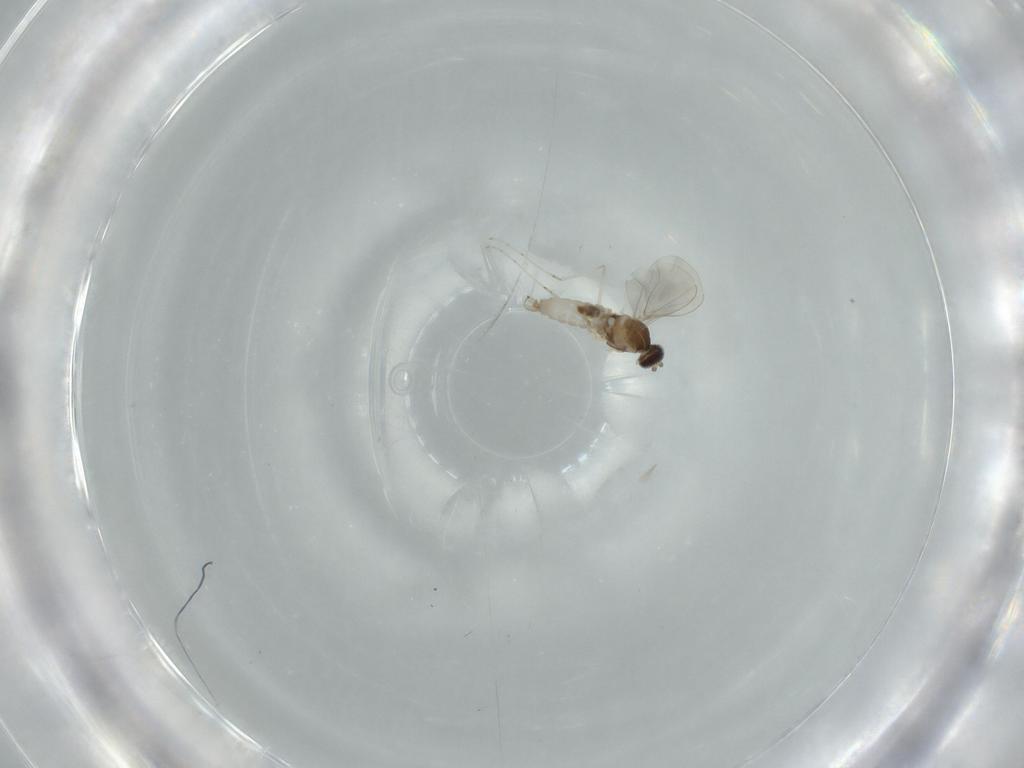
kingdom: Animalia
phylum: Arthropoda
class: Insecta
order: Diptera
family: Cecidomyiidae
